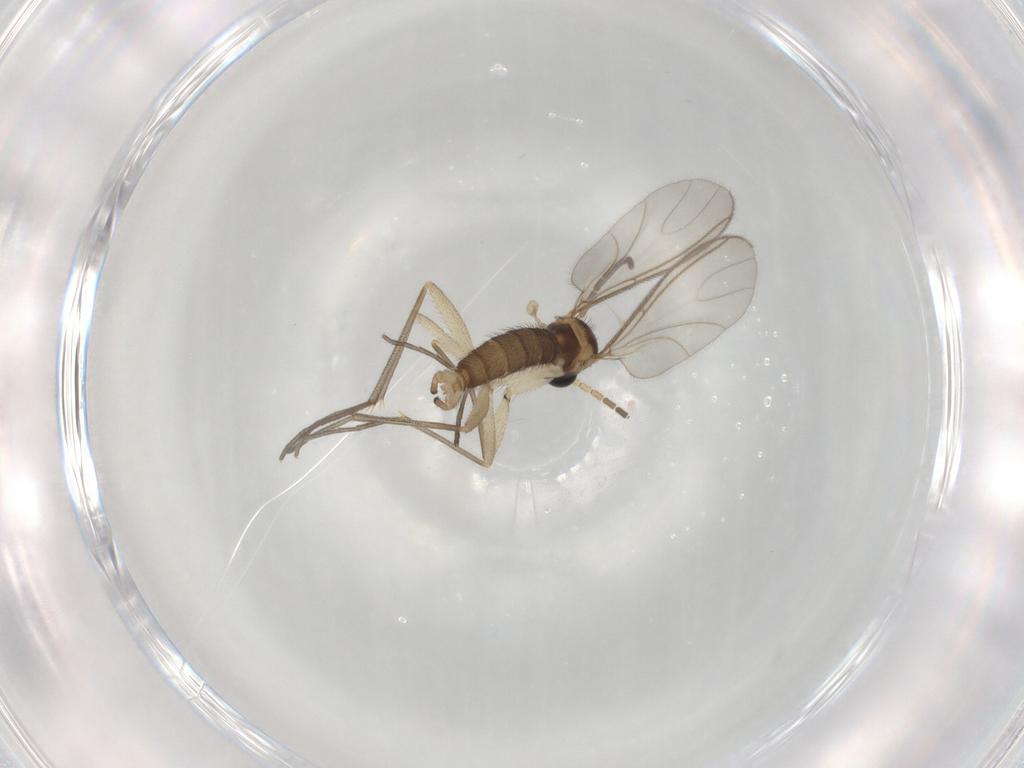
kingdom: Animalia
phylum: Arthropoda
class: Insecta
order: Diptera
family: Sciaridae
